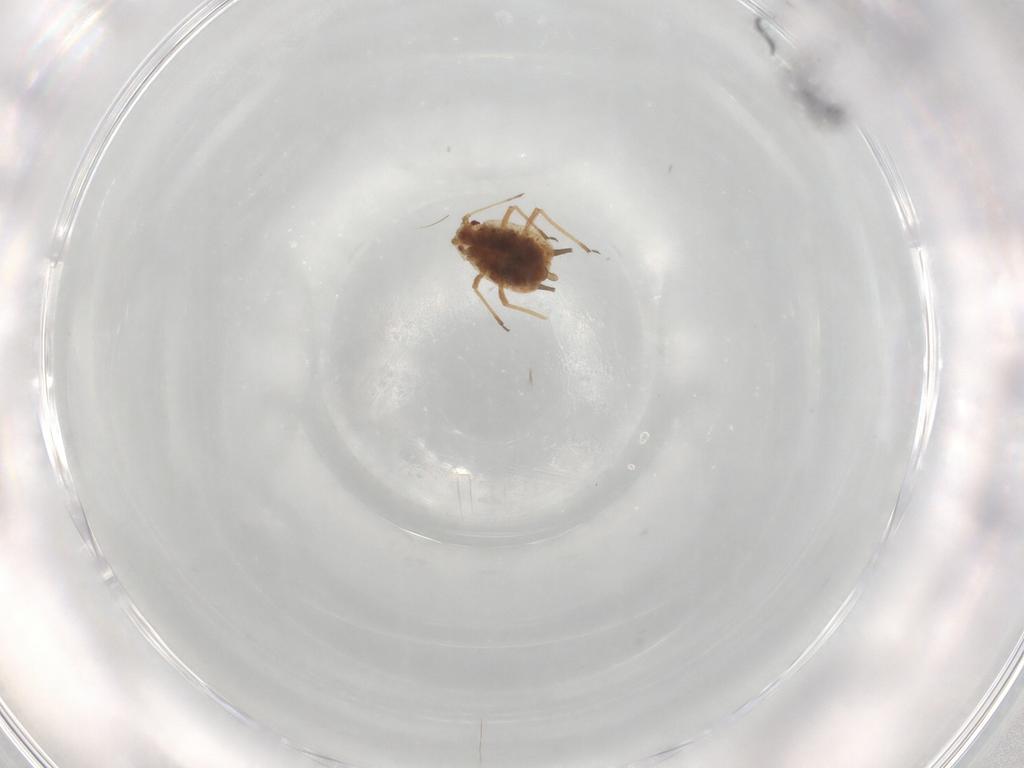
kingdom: Animalia
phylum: Arthropoda
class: Insecta
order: Hemiptera
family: Aphididae
